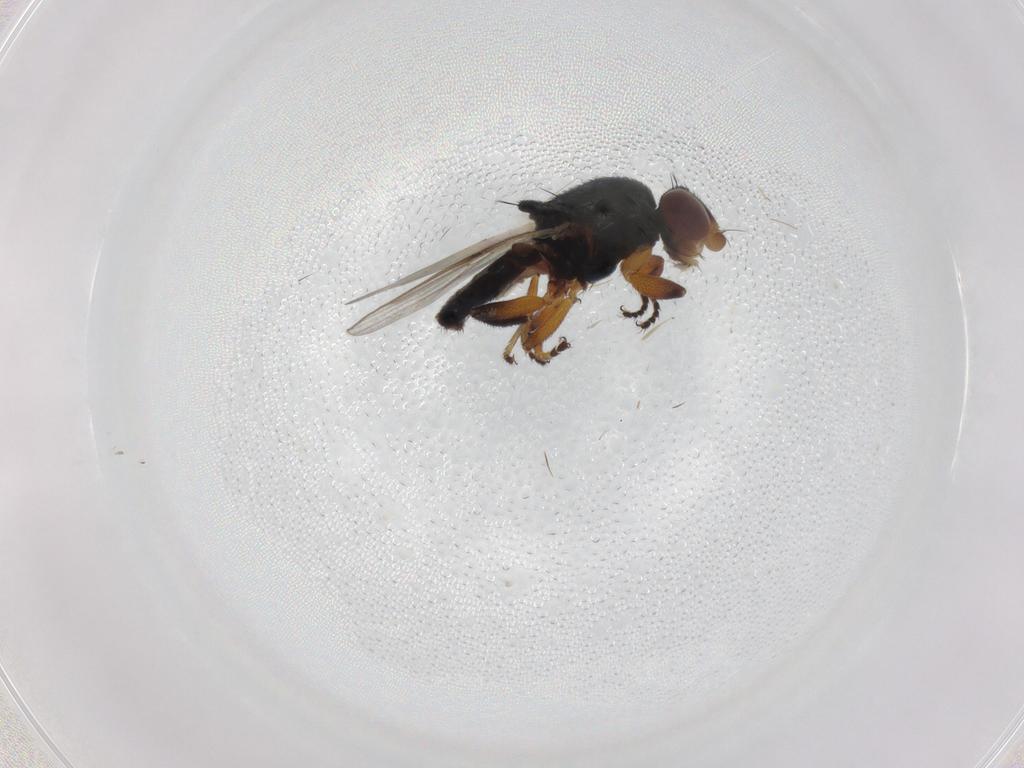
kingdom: Animalia
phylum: Arthropoda
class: Insecta
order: Diptera
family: Chloropidae
